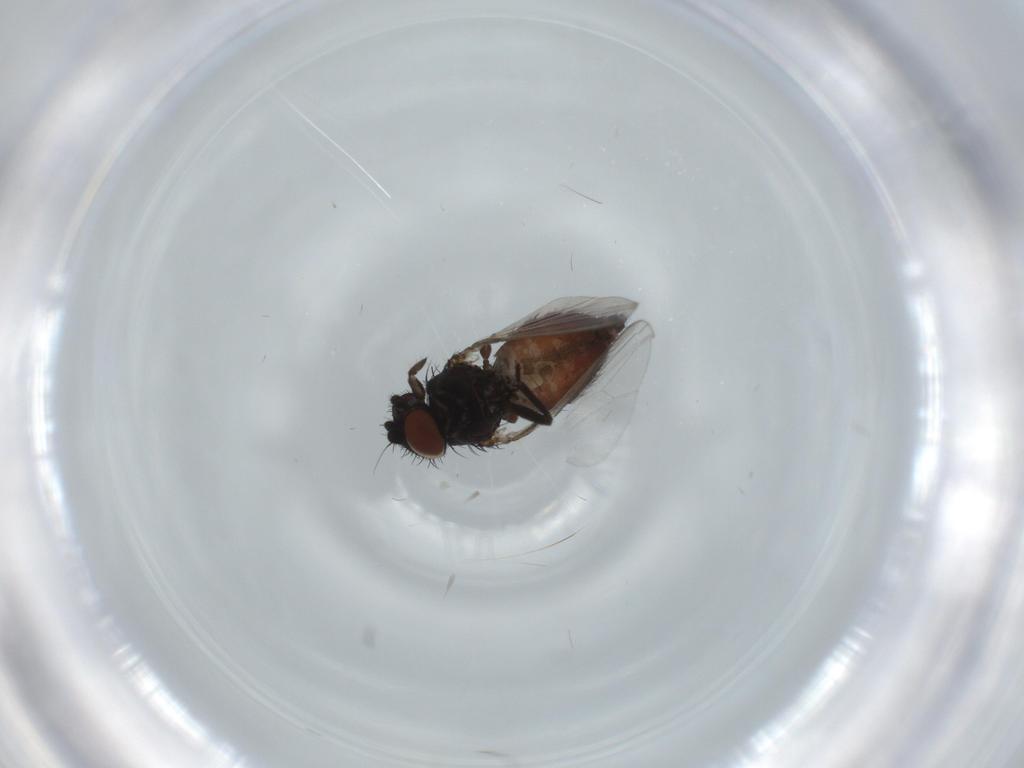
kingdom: Animalia
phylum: Arthropoda
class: Insecta
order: Diptera
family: Milichiidae
